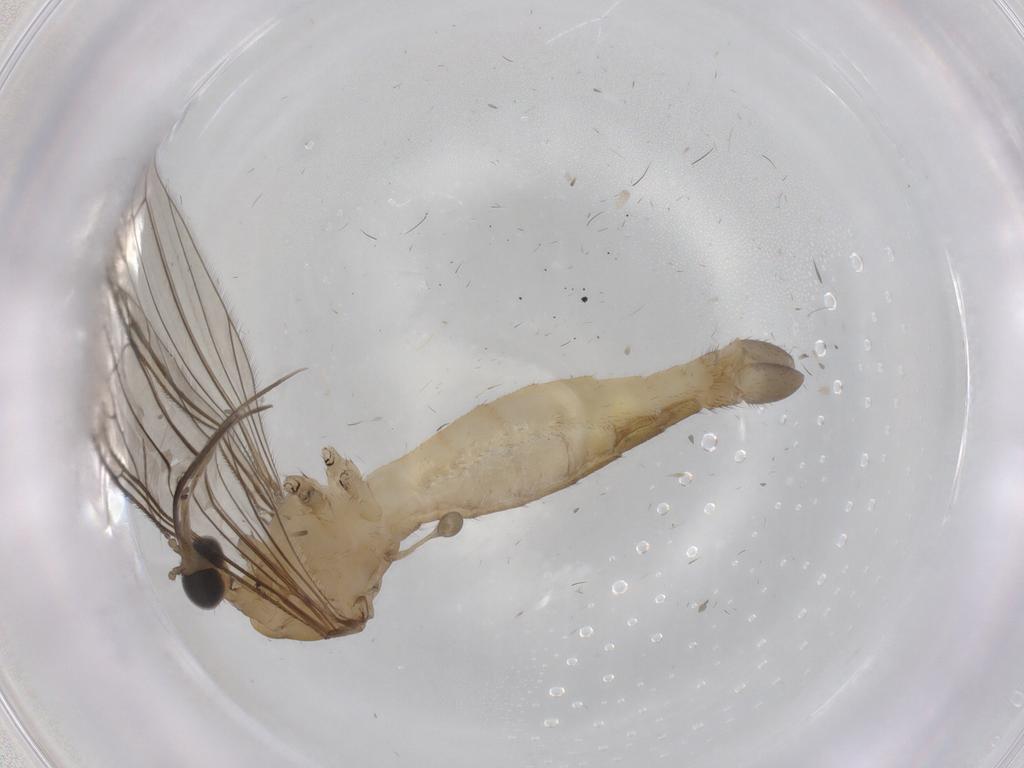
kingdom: Animalia
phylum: Arthropoda
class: Insecta
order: Diptera
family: Limoniidae
